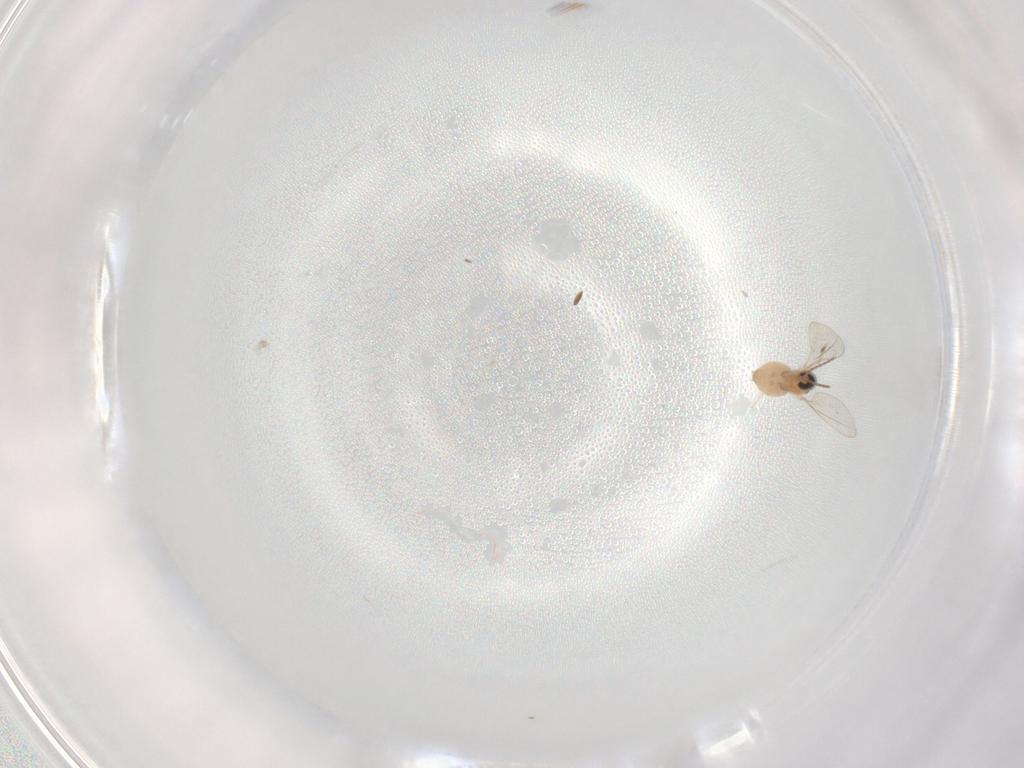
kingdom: Animalia
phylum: Arthropoda
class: Insecta
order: Diptera
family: Cecidomyiidae
